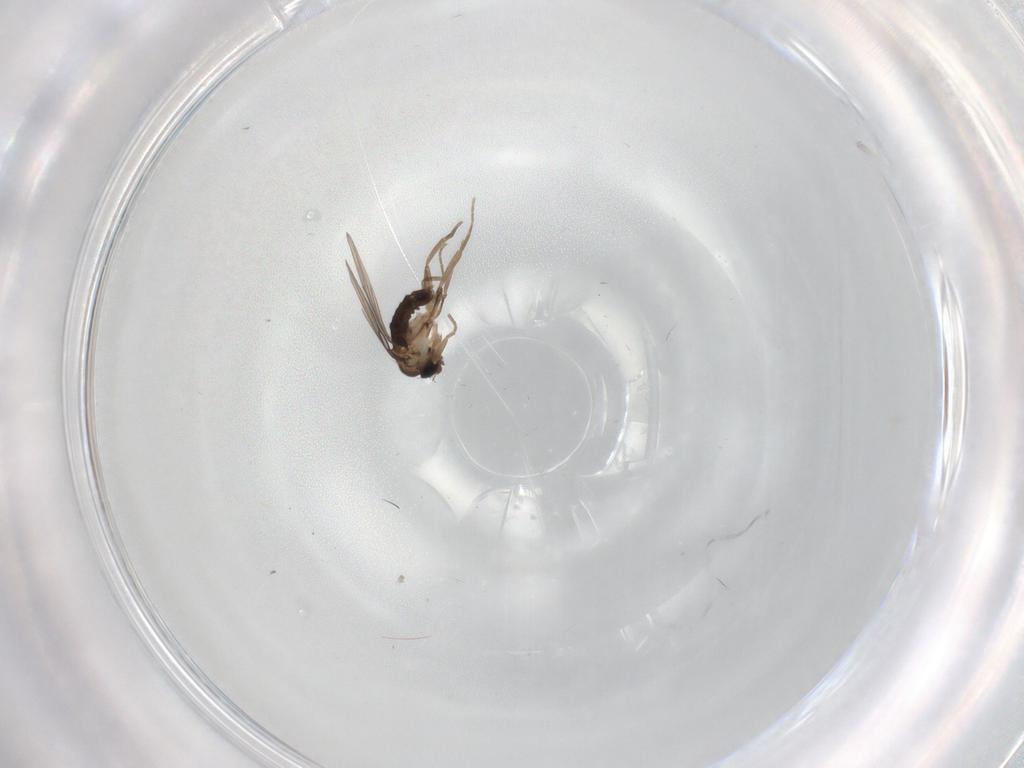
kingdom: Animalia
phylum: Arthropoda
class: Insecta
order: Diptera
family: Phoridae
